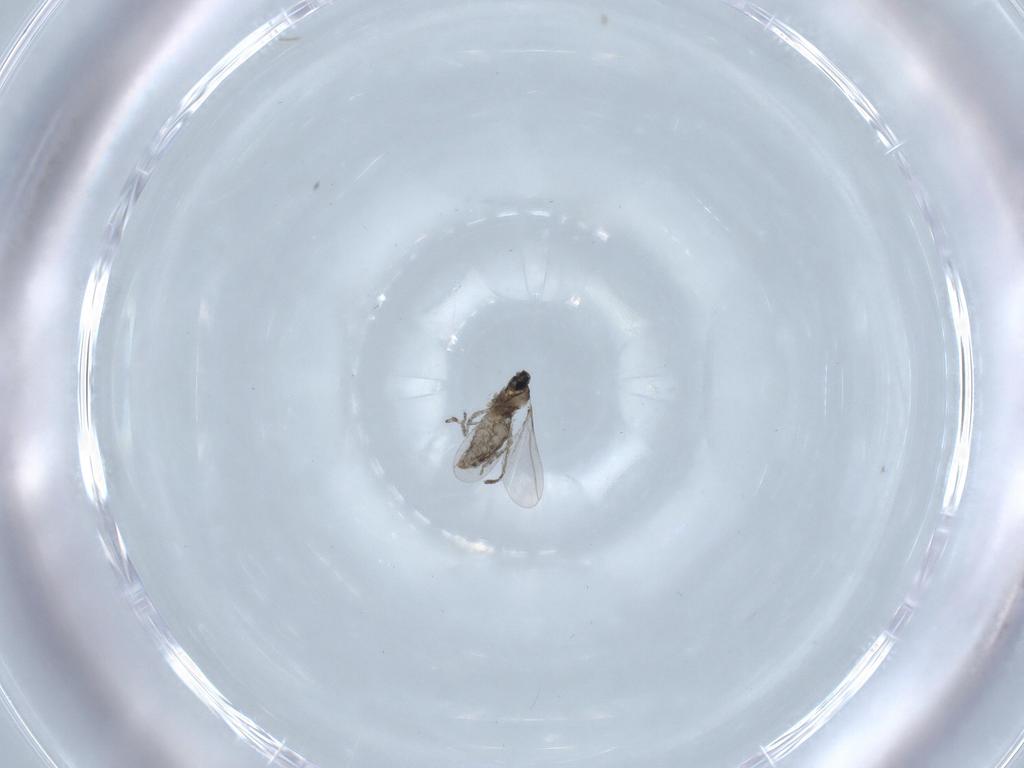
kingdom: Animalia
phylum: Arthropoda
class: Insecta
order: Diptera
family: Cecidomyiidae
